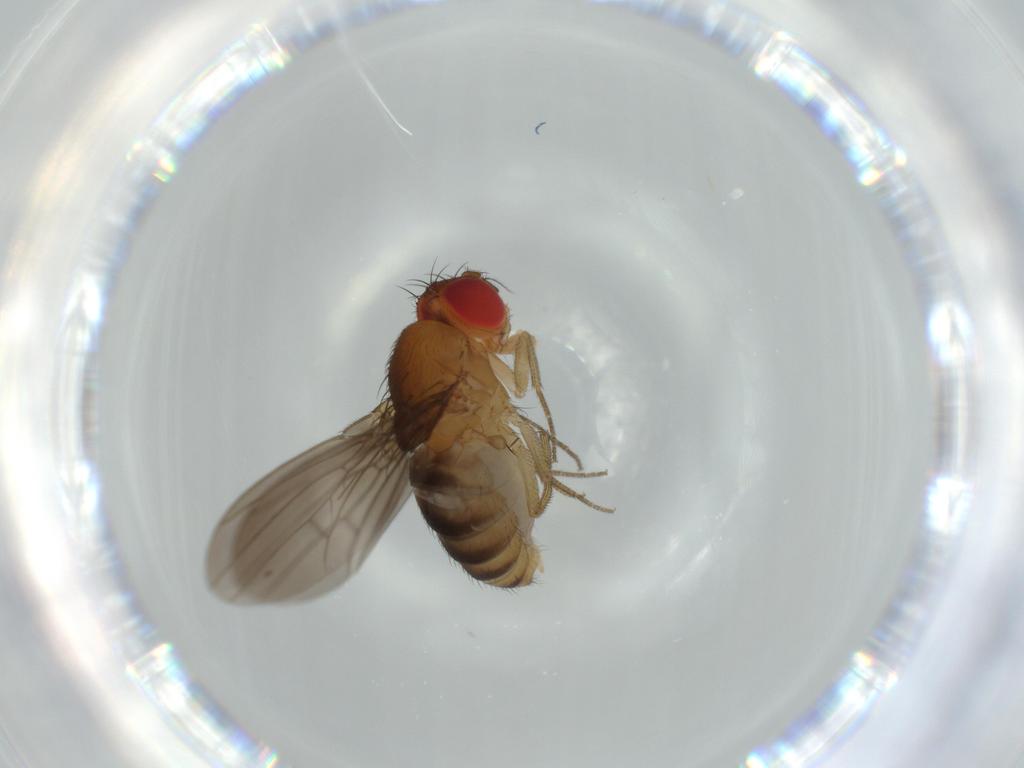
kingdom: Animalia
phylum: Arthropoda
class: Insecta
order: Diptera
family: Drosophilidae
